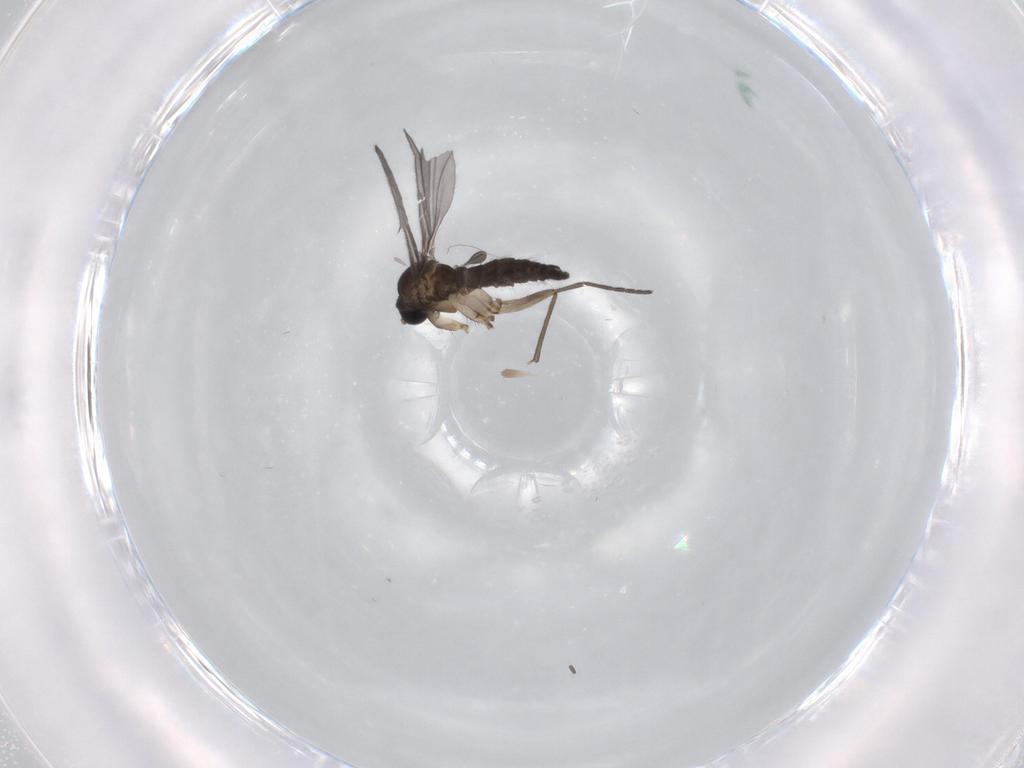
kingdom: Animalia
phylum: Arthropoda
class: Insecta
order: Diptera
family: Sciaridae
